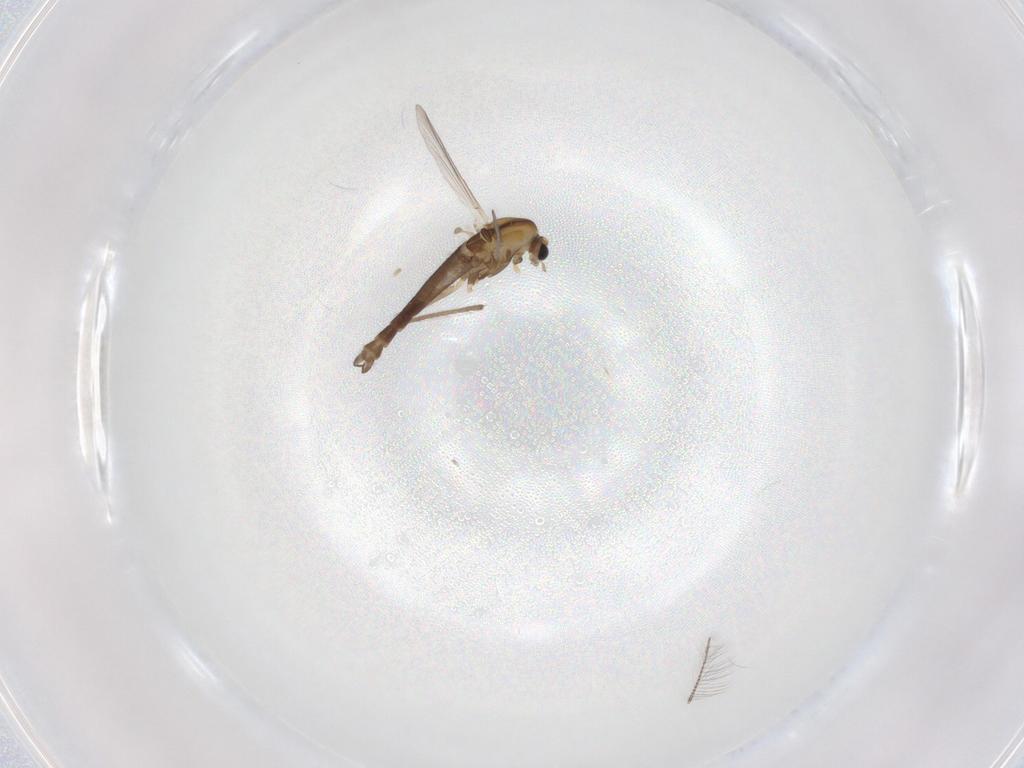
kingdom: Animalia
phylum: Arthropoda
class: Insecta
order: Diptera
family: Chironomidae
